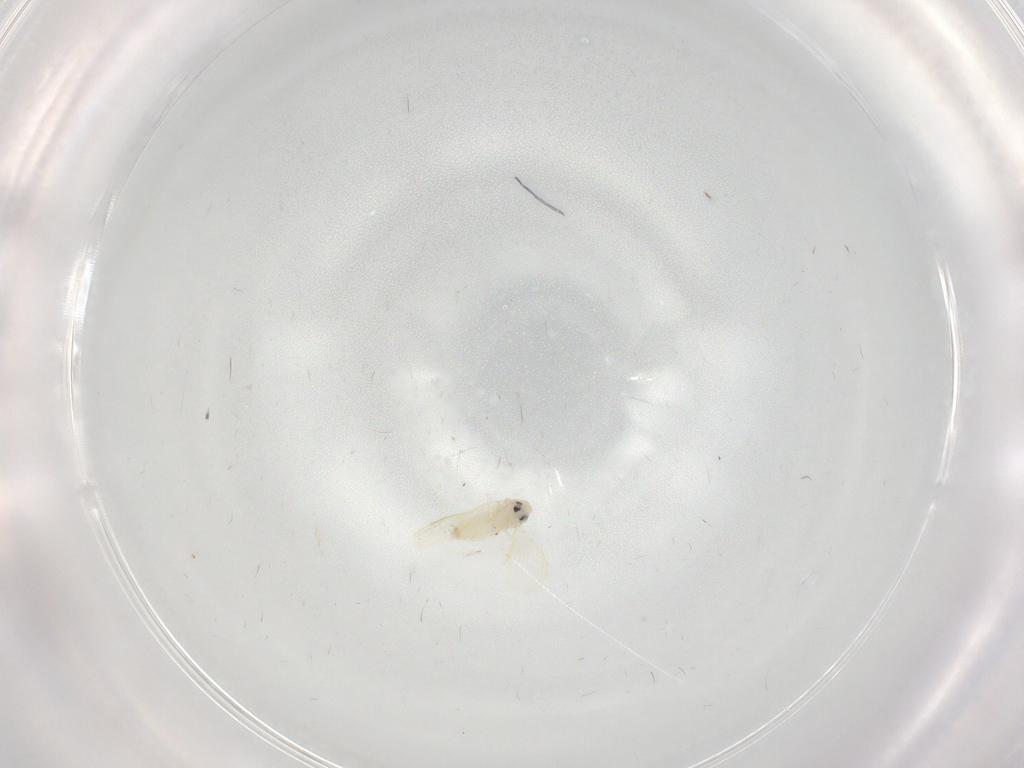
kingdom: Animalia
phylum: Arthropoda
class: Insecta
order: Hemiptera
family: Aleyrodidae
